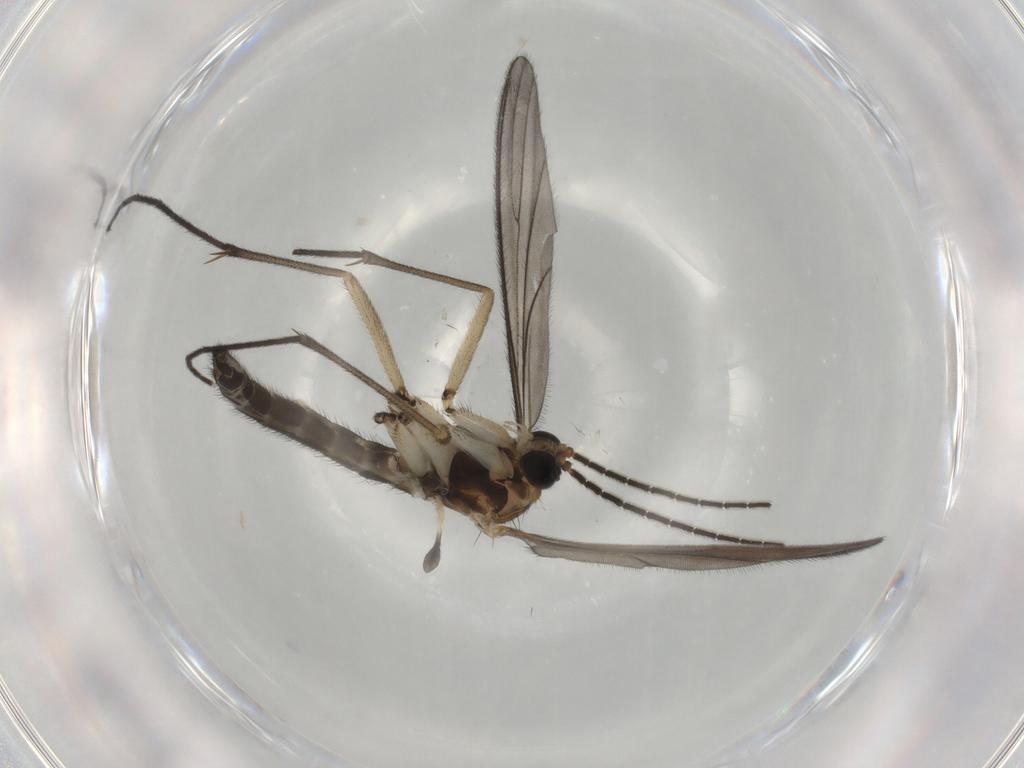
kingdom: Animalia
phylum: Arthropoda
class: Insecta
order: Diptera
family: Sciaridae
